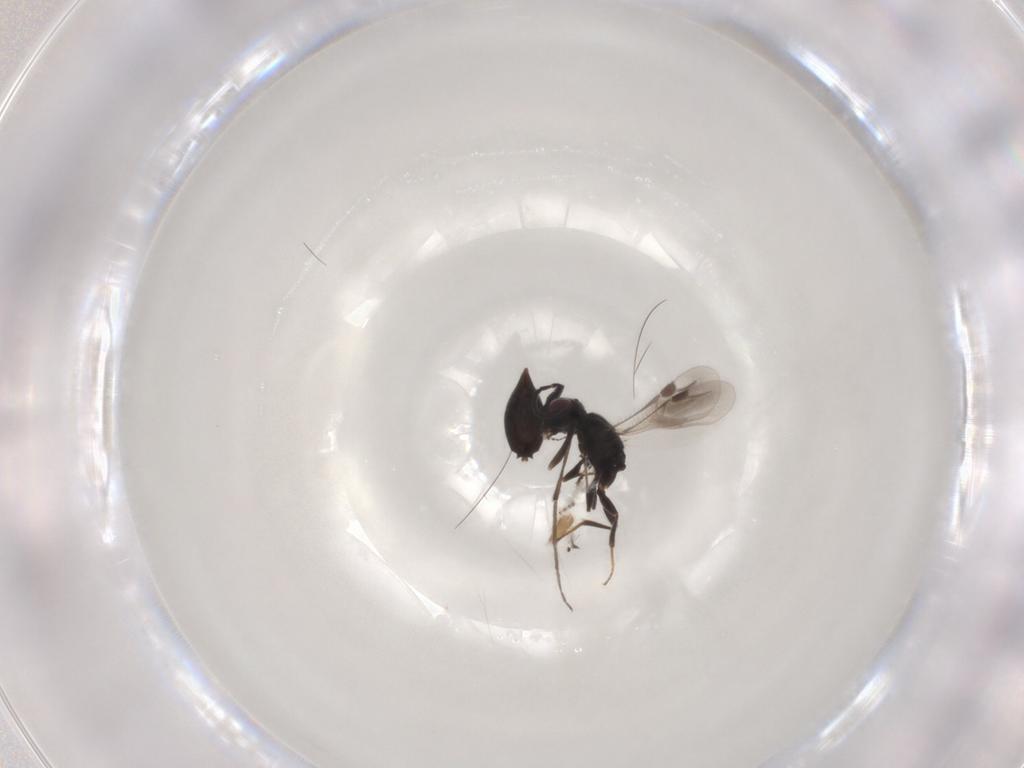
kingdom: Animalia
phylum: Arthropoda
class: Insecta
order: Hymenoptera
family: Megaspilidae
